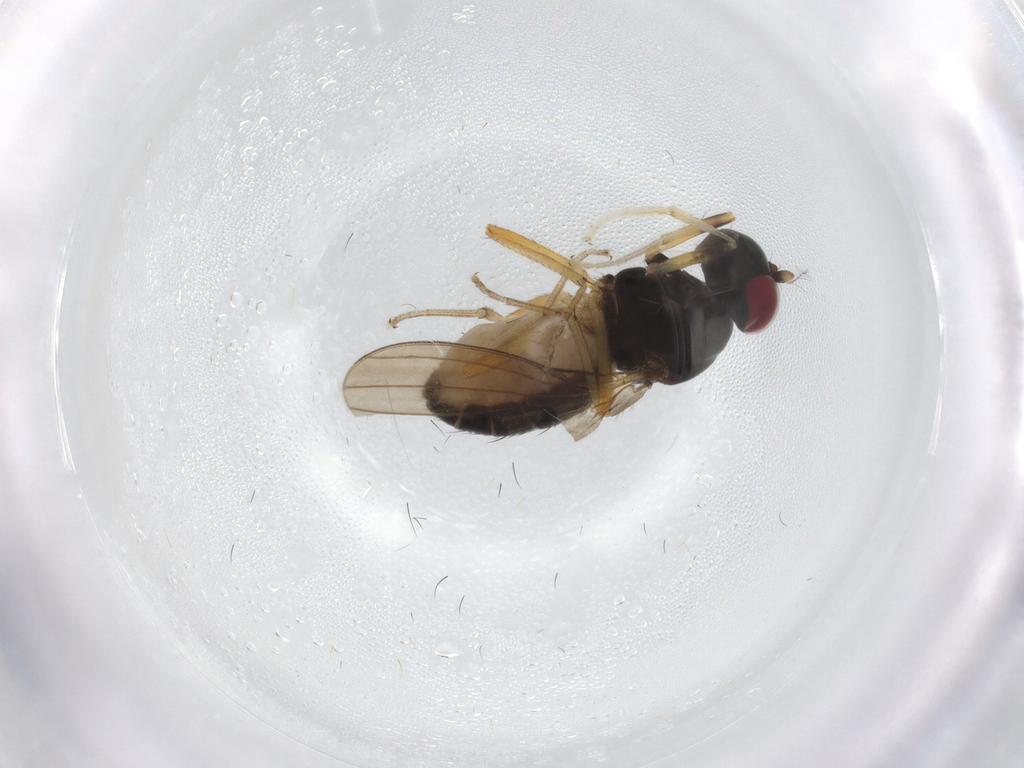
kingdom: Animalia
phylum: Arthropoda
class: Insecta
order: Diptera
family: Lauxaniidae
